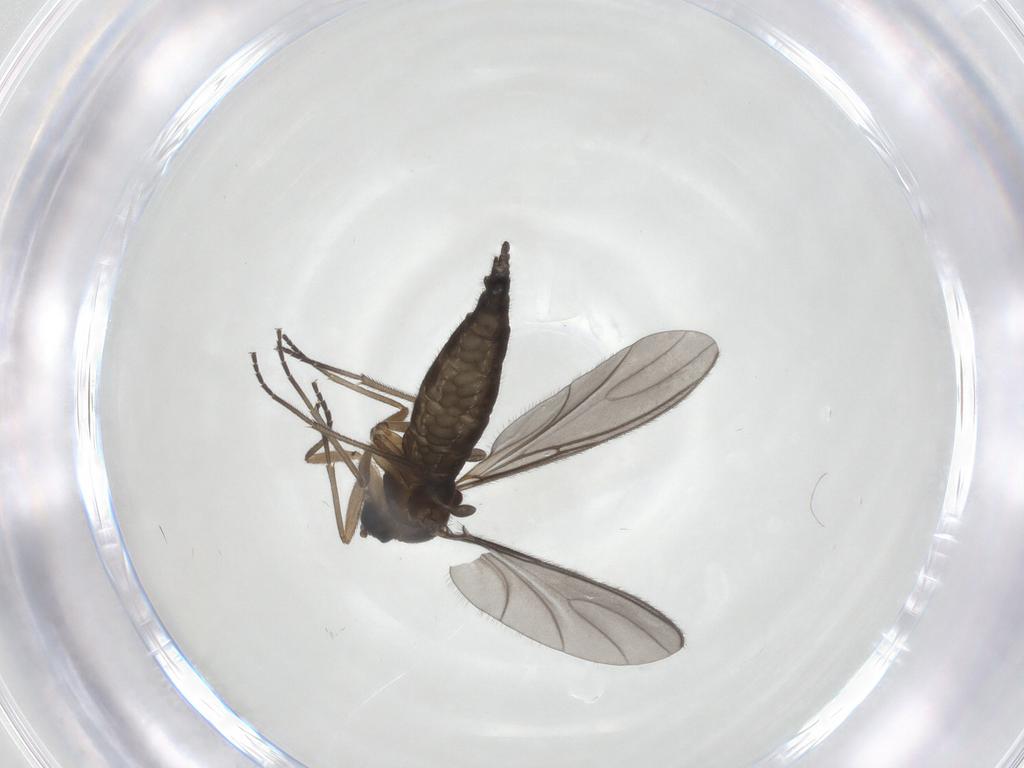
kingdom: Animalia
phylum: Arthropoda
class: Insecta
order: Diptera
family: Sciaridae
